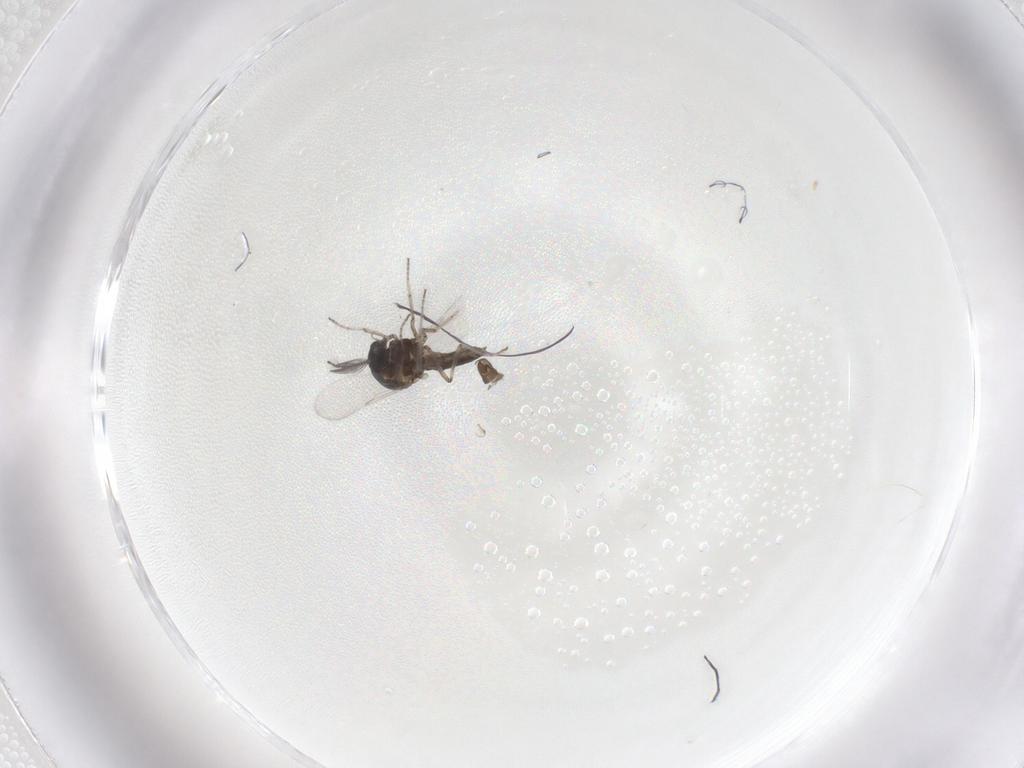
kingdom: Animalia
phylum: Arthropoda
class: Insecta
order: Diptera
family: Ceratopogonidae
